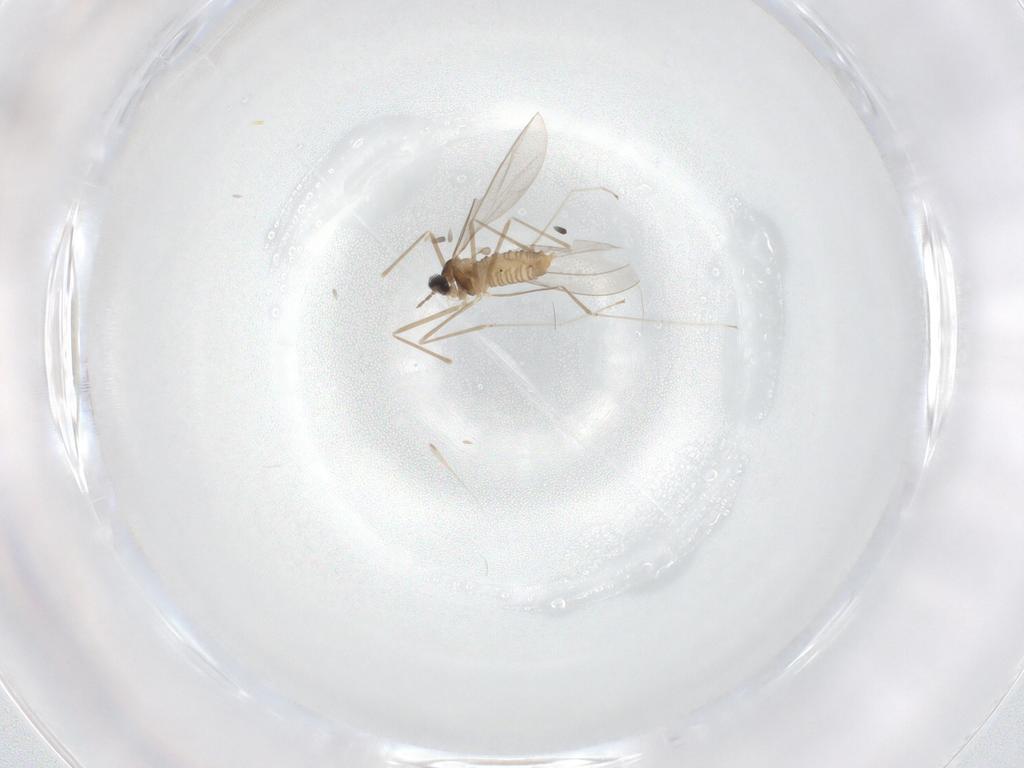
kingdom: Animalia
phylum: Arthropoda
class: Insecta
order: Diptera
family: Cecidomyiidae
